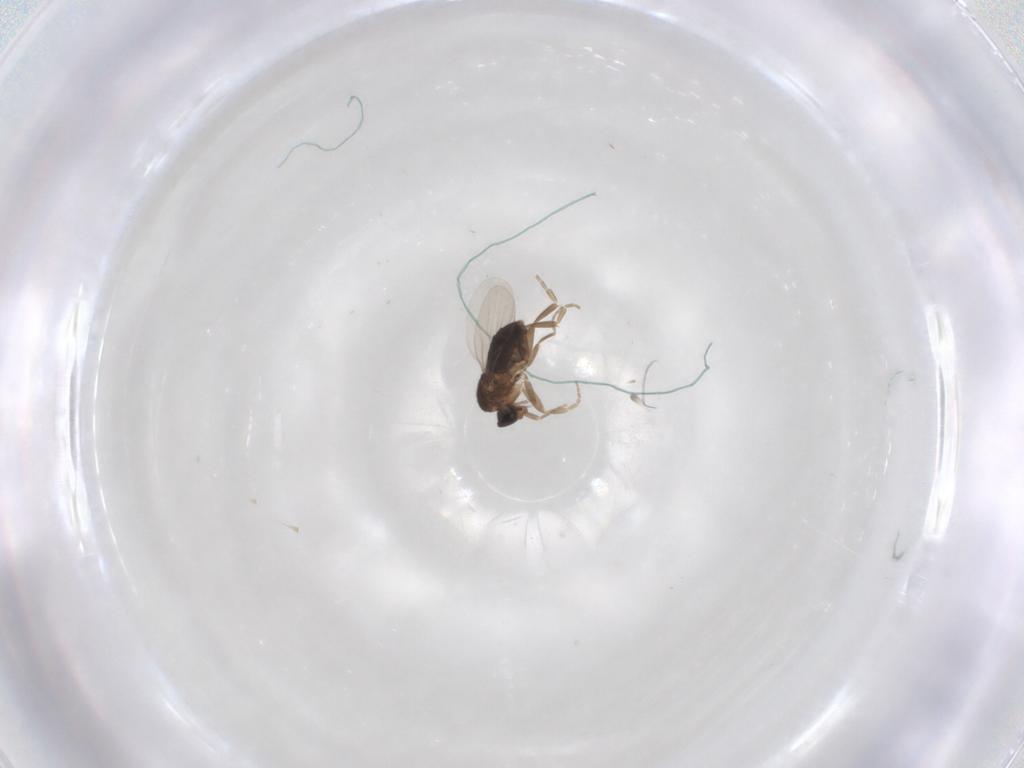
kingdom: Animalia
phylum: Arthropoda
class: Insecta
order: Diptera
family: Phoridae
